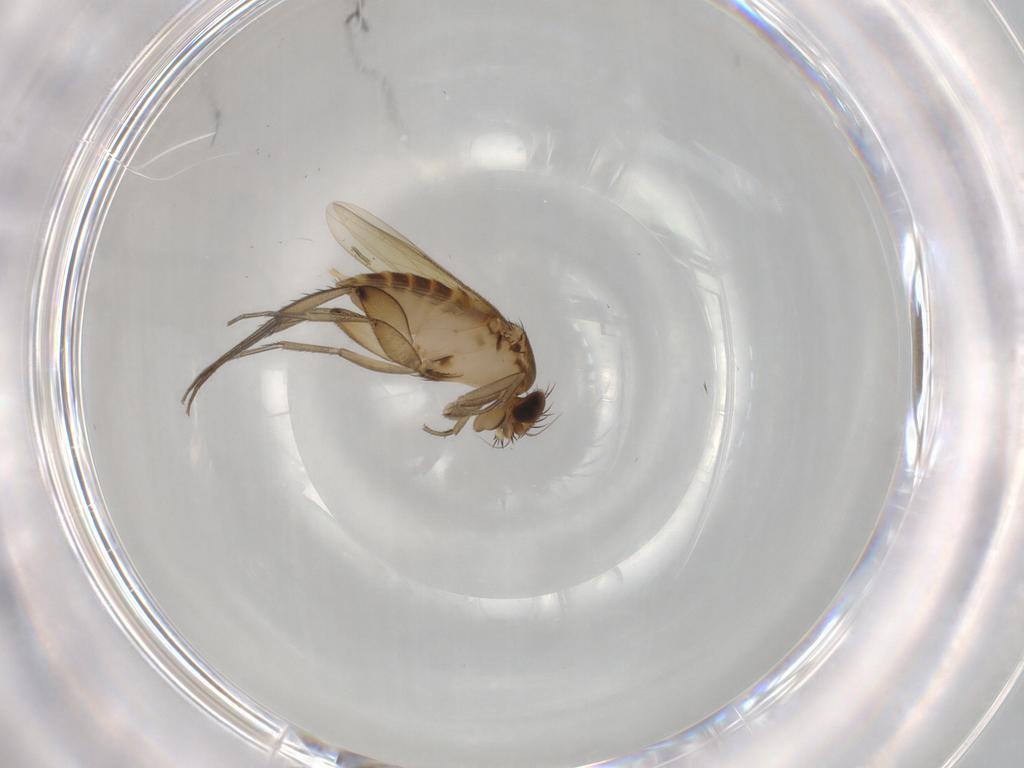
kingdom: Animalia
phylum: Arthropoda
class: Insecta
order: Diptera
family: Phoridae
